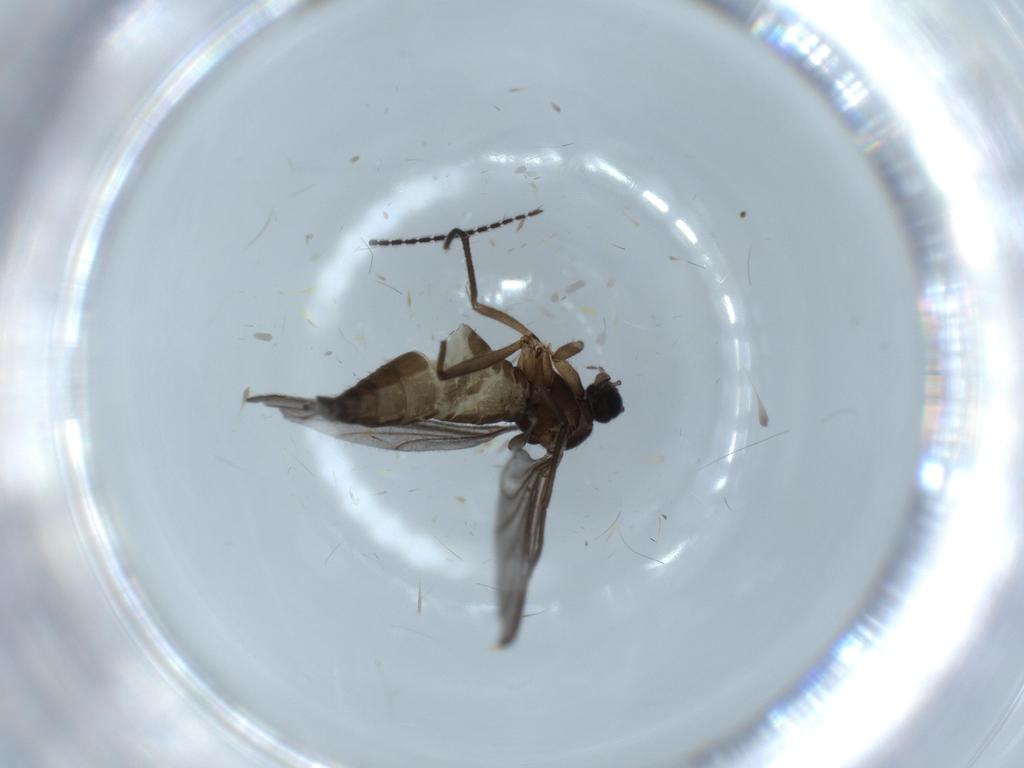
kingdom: Animalia
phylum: Arthropoda
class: Insecta
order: Diptera
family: Sciaridae
